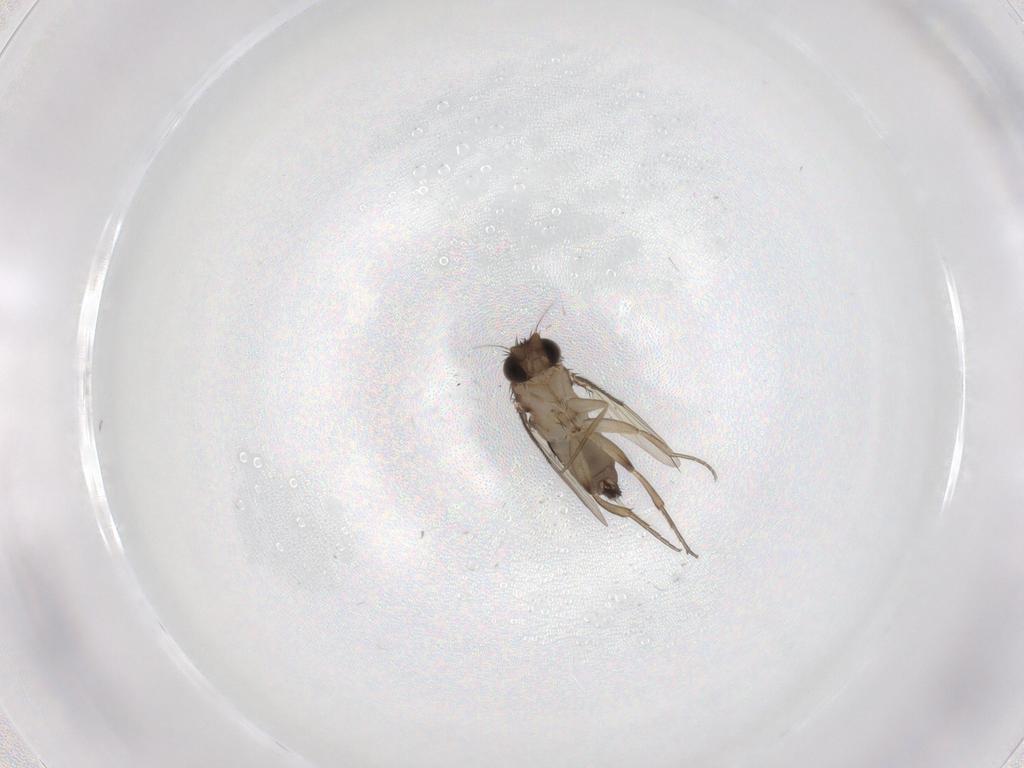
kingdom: Animalia
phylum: Arthropoda
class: Insecta
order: Diptera
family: Phoridae
